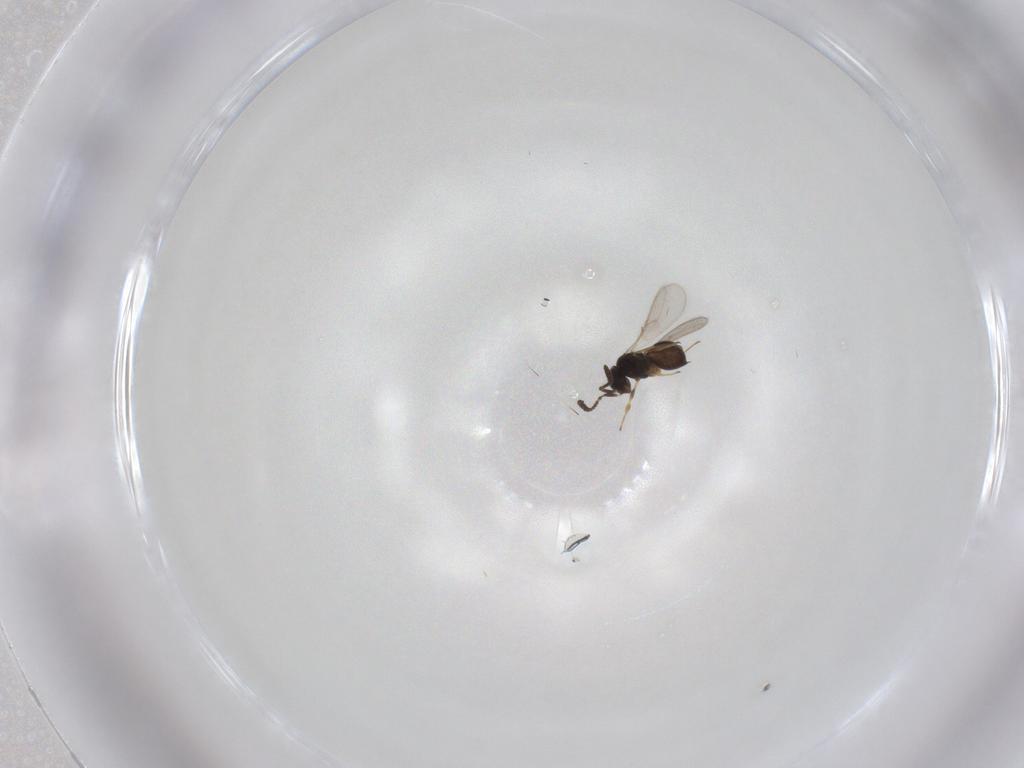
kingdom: Animalia
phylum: Arthropoda
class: Insecta
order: Hymenoptera
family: Scelionidae
